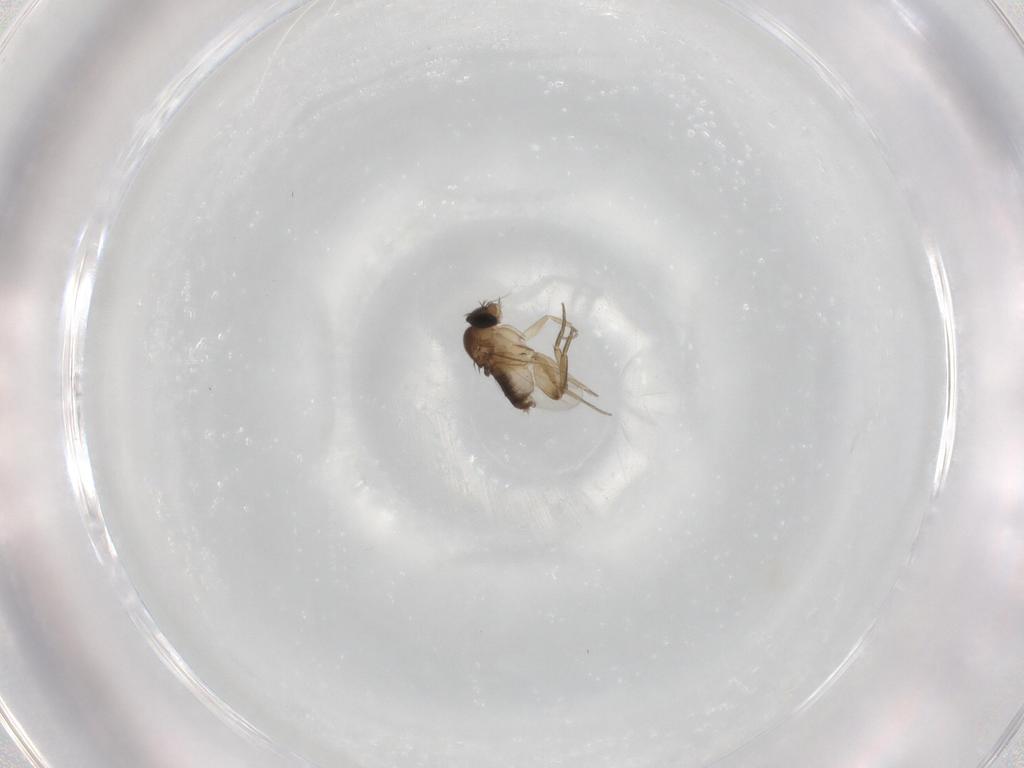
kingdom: Animalia
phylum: Arthropoda
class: Insecta
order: Diptera
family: Phoridae
